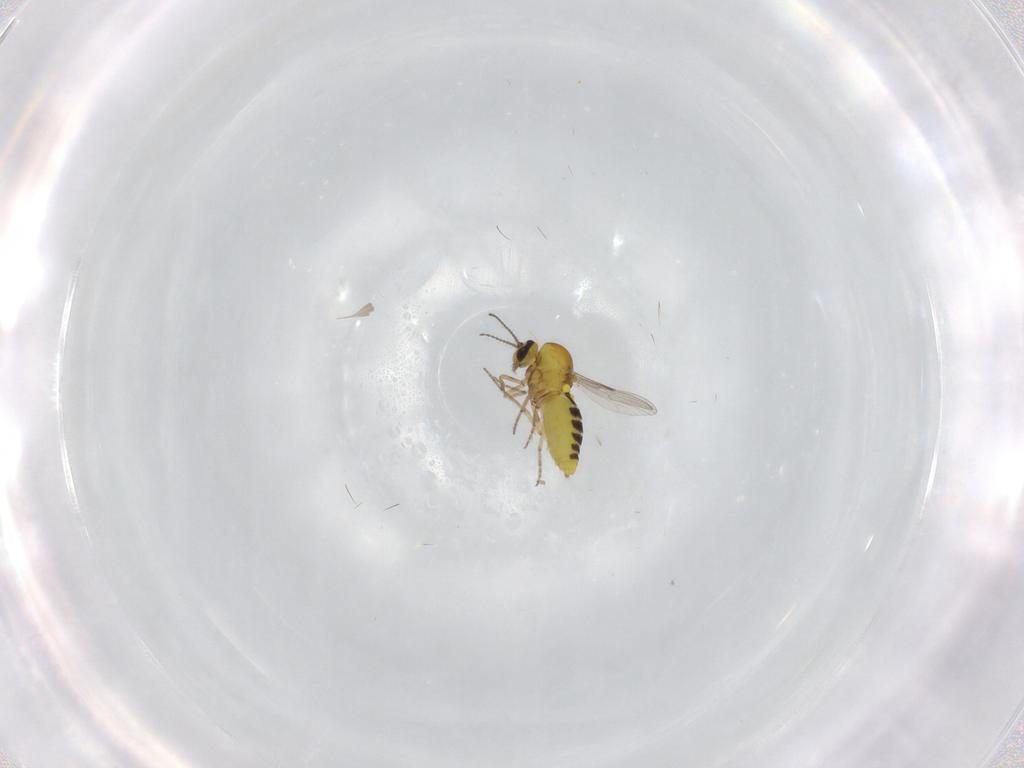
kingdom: Animalia
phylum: Arthropoda
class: Insecta
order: Diptera
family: Ceratopogonidae
